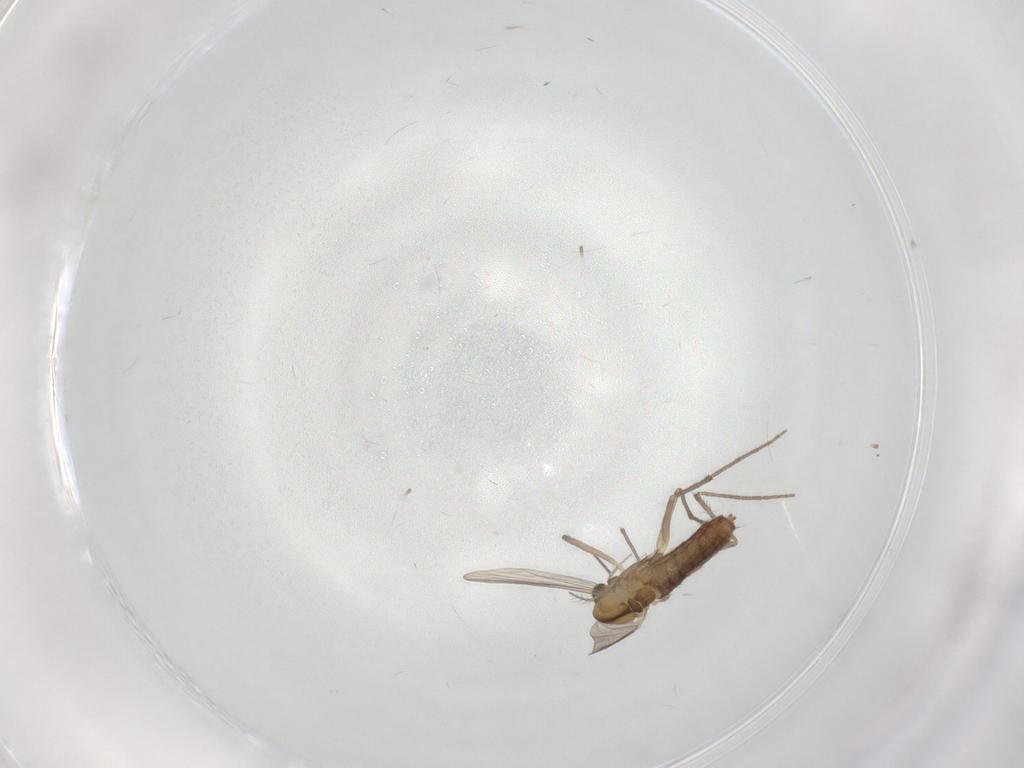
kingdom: Animalia
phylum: Arthropoda
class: Insecta
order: Diptera
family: Chironomidae
